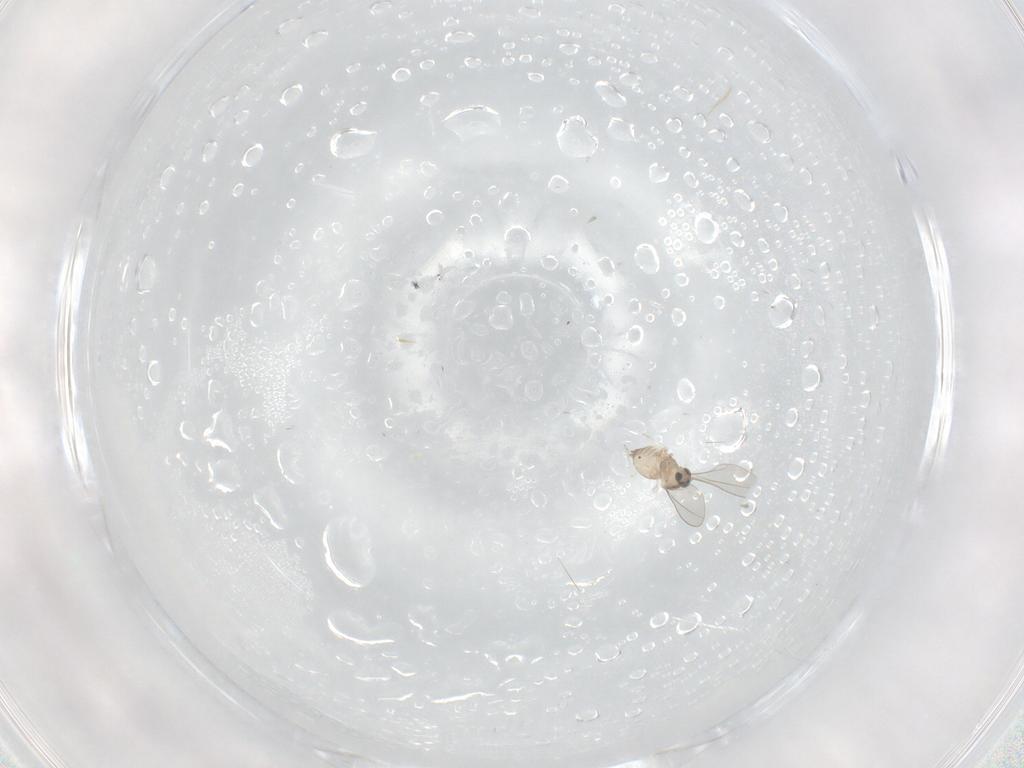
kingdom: Animalia
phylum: Arthropoda
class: Insecta
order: Diptera
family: Cecidomyiidae
